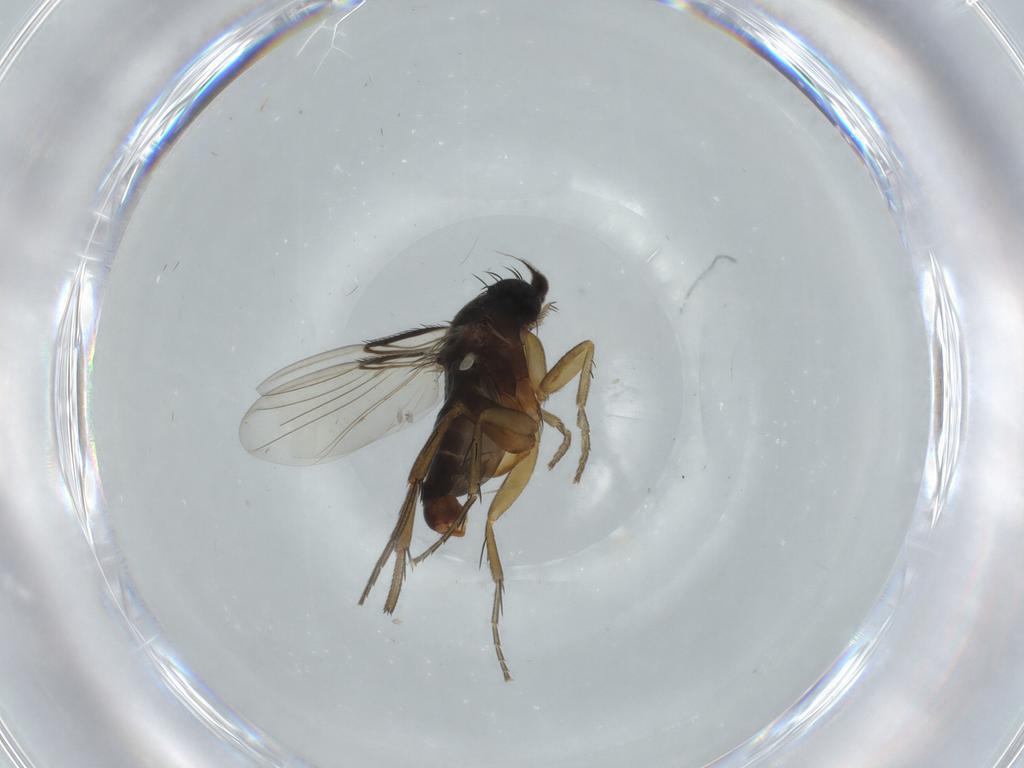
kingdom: Animalia
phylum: Arthropoda
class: Insecta
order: Diptera
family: Phoridae
